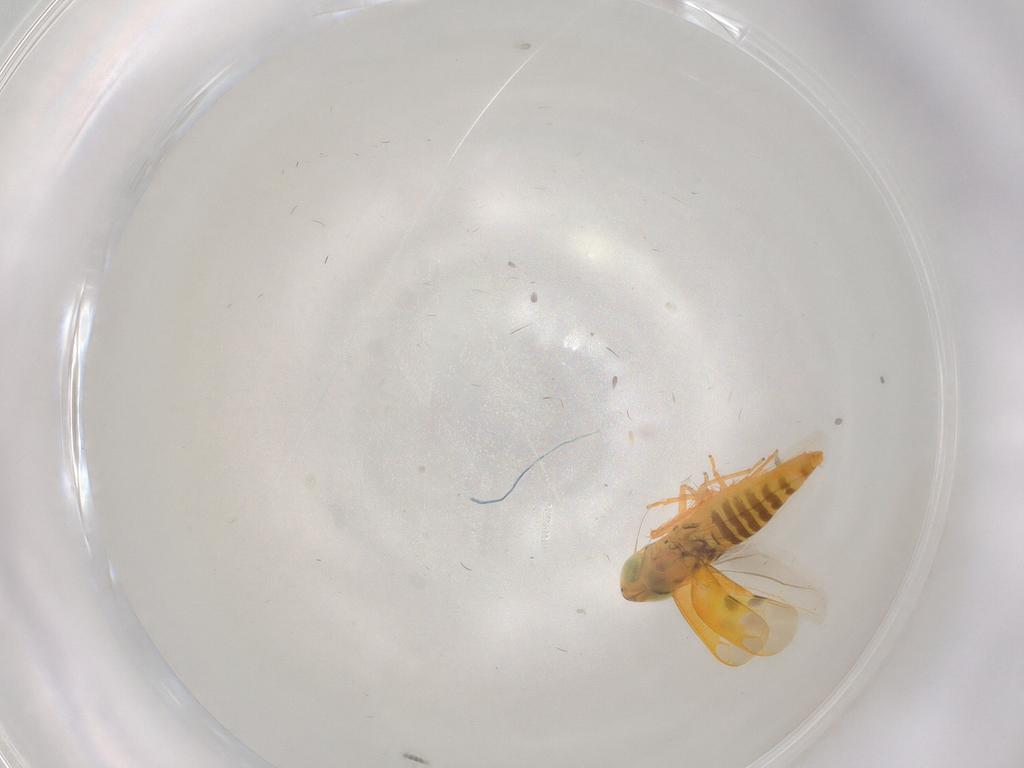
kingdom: Animalia
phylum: Arthropoda
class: Insecta
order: Hemiptera
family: Cicadellidae
